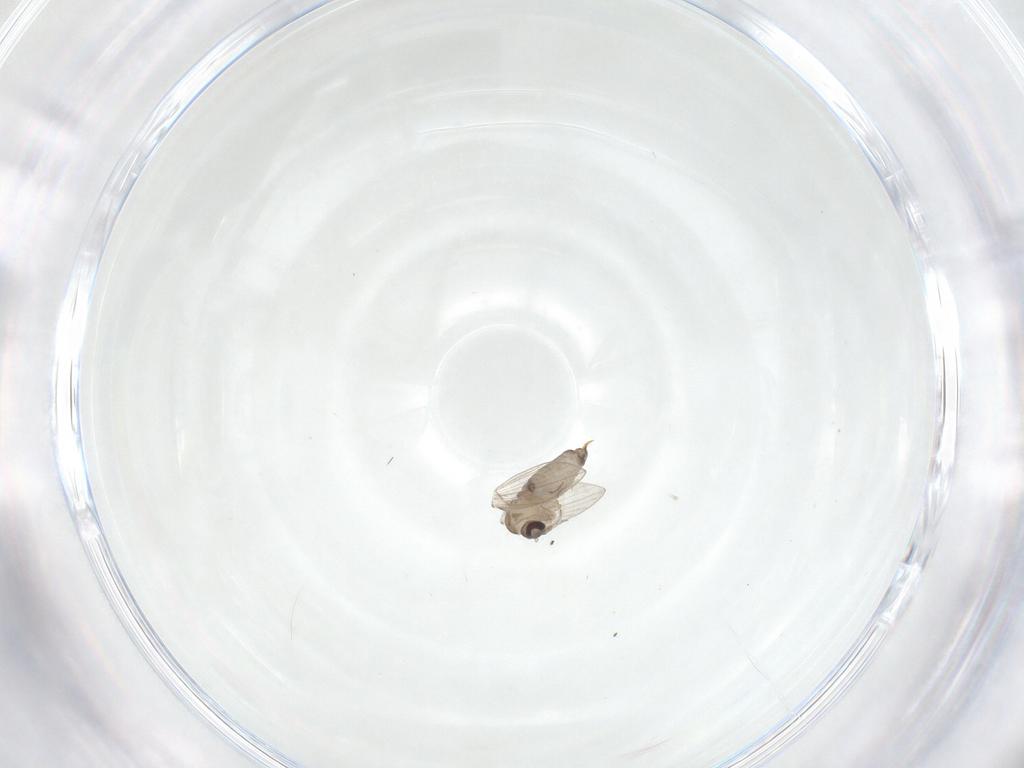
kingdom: Animalia
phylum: Arthropoda
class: Insecta
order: Diptera
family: Psychodidae
